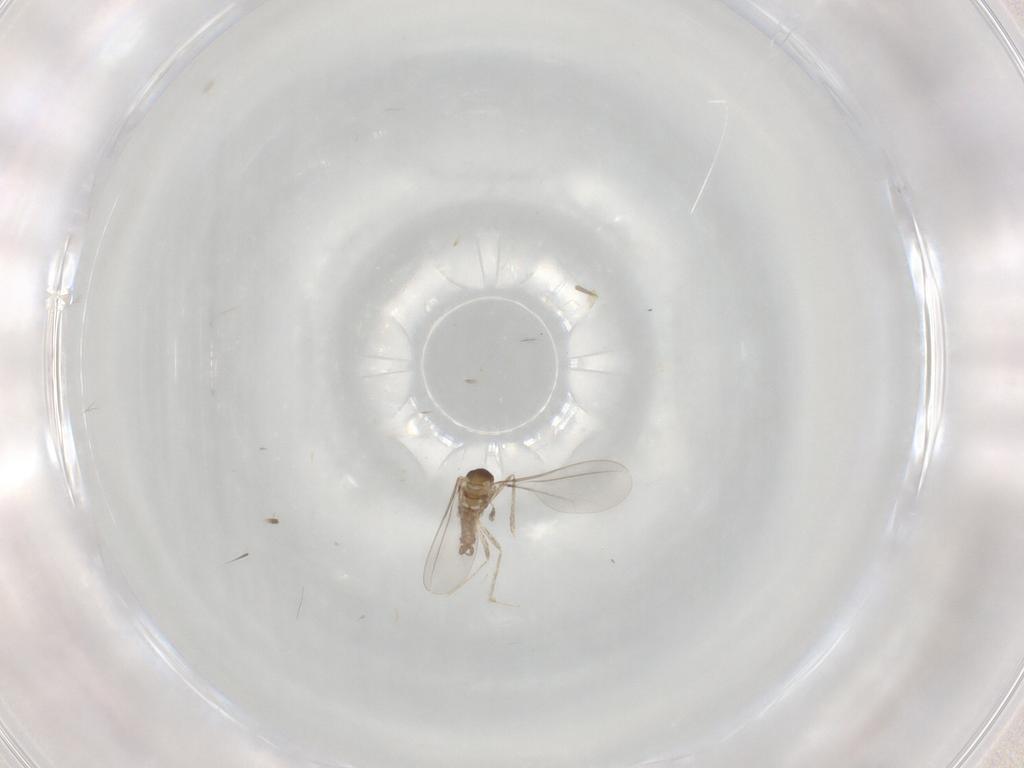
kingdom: Animalia
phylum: Arthropoda
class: Insecta
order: Diptera
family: Cecidomyiidae
